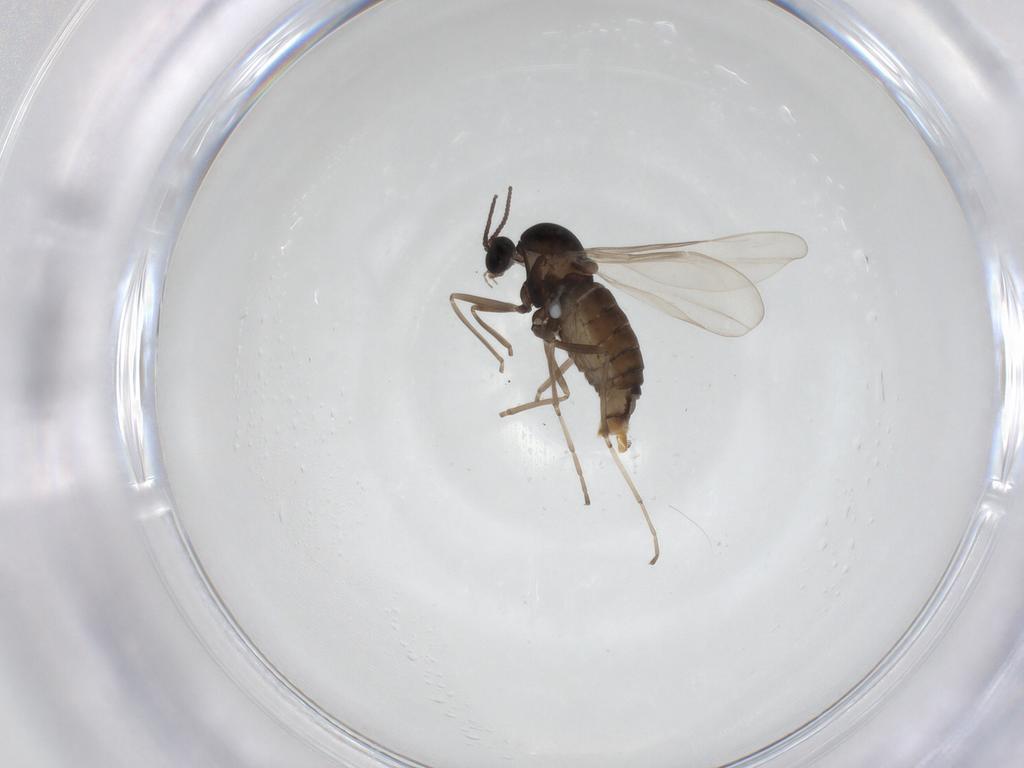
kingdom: Animalia
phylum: Arthropoda
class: Insecta
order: Diptera
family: Cecidomyiidae
